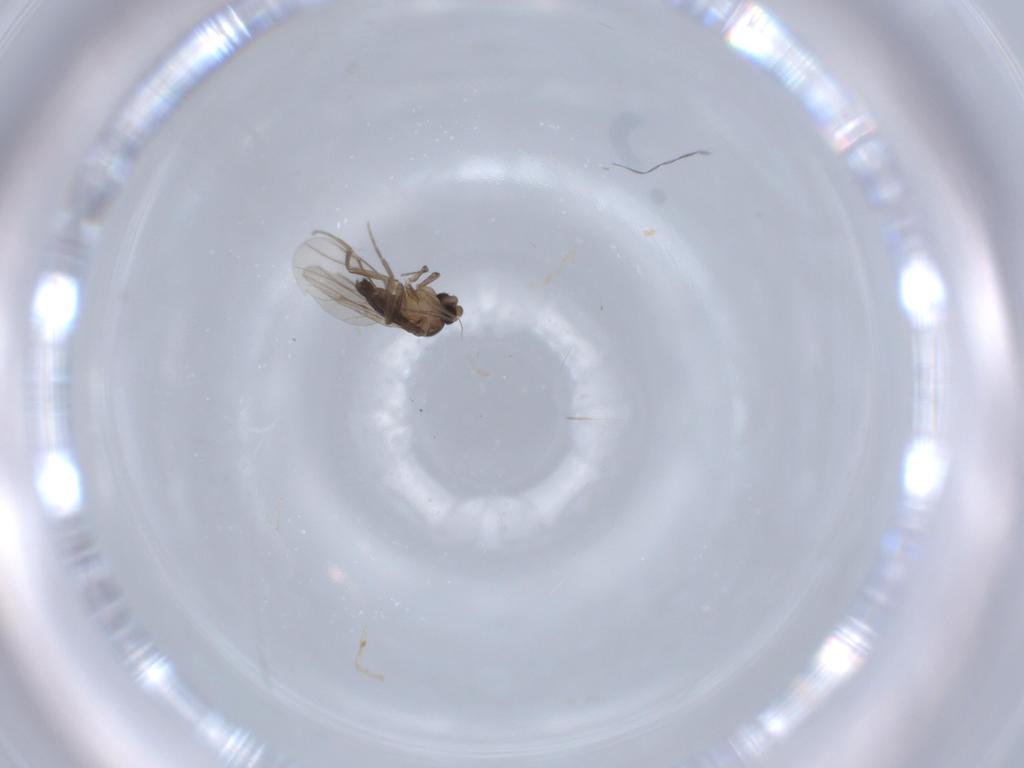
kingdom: Animalia
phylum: Arthropoda
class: Insecta
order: Diptera
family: Phoridae
